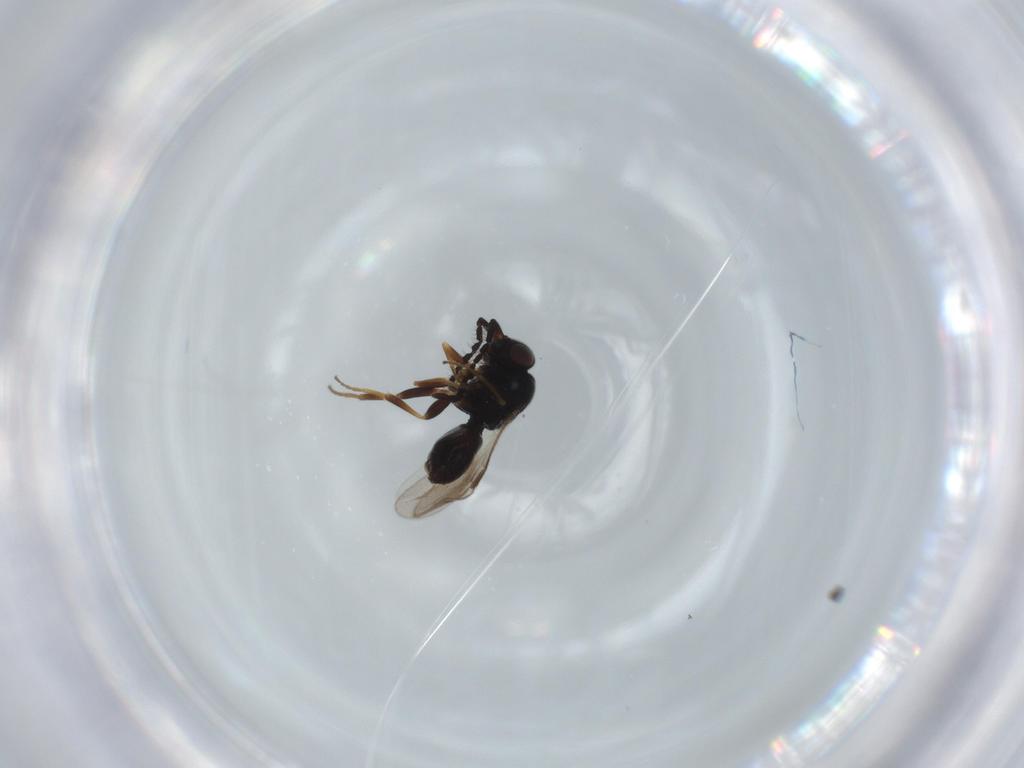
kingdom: Animalia
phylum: Arthropoda
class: Insecta
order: Hymenoptera
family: Megaspilidae
